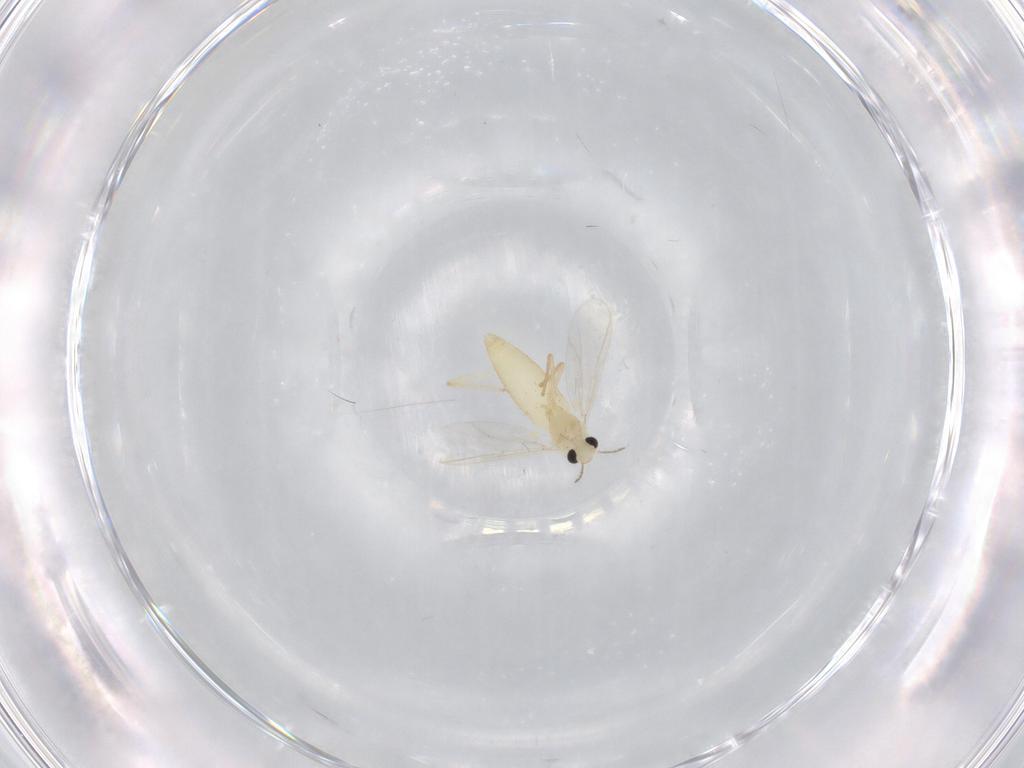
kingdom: Animalia
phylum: Arthropoda
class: Insecta
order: Diptera
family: Chironomidae
